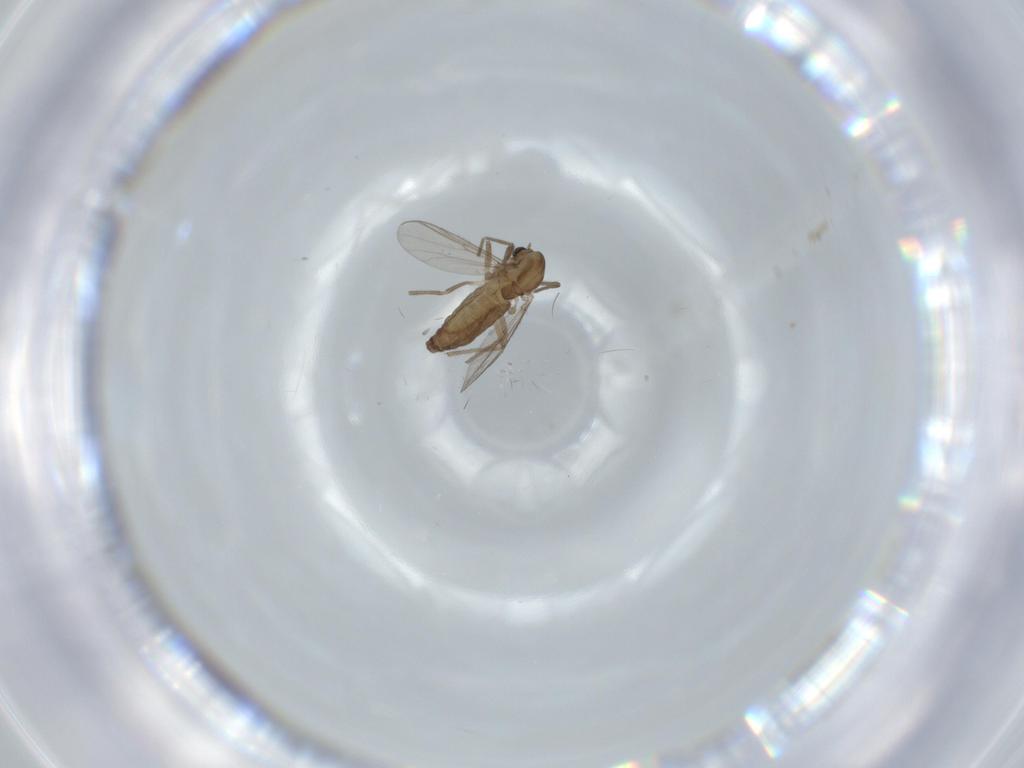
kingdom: Animalia
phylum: Arthropoda
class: Insecta
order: Diptera
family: Chironomidae
